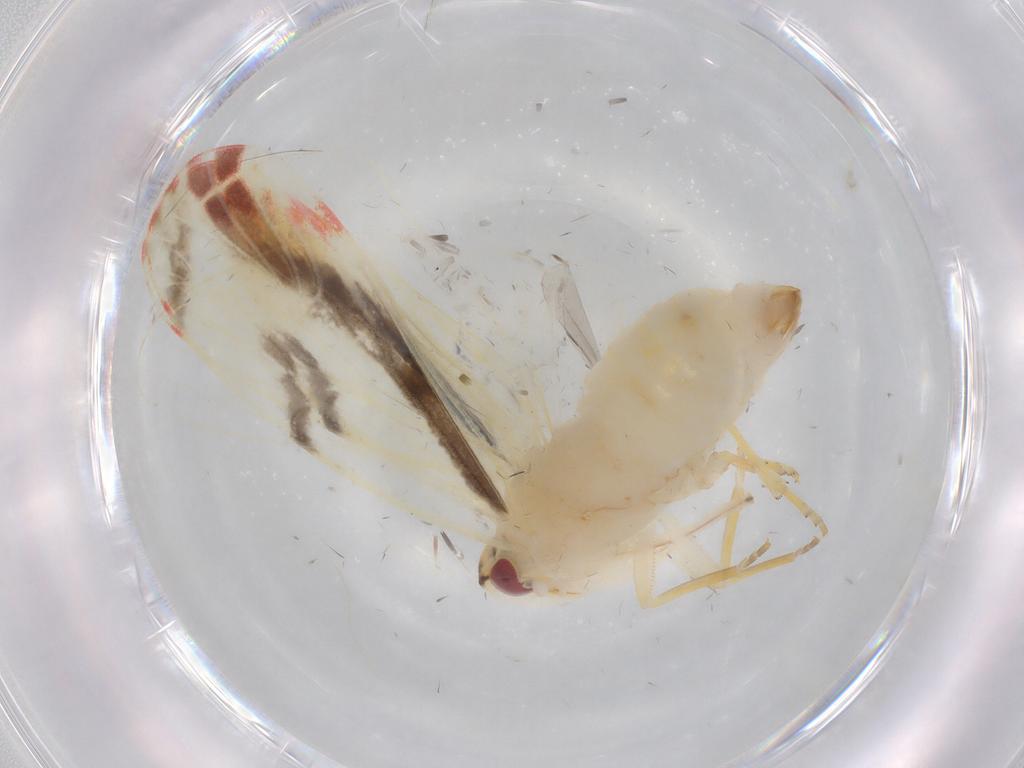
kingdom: Animalia
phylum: Arthropoda
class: Insecta
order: Hemiptera
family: Derbidae
